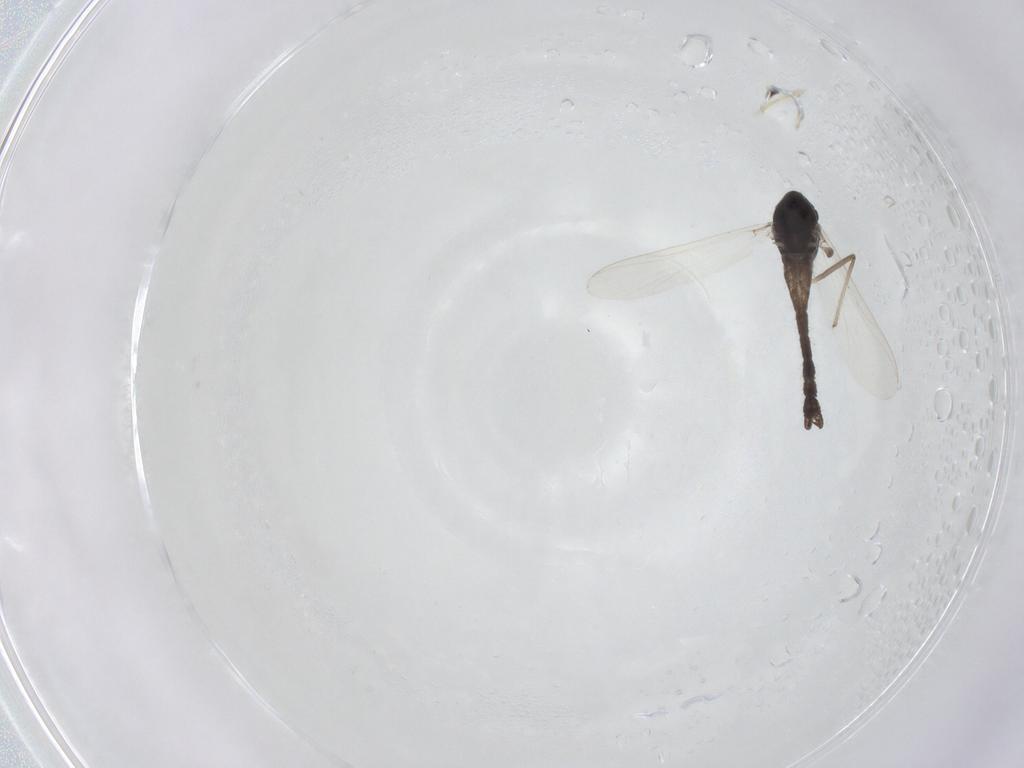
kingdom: Animalia
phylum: Arthropoda
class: Insecta
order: Diptera
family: Chironomidae
